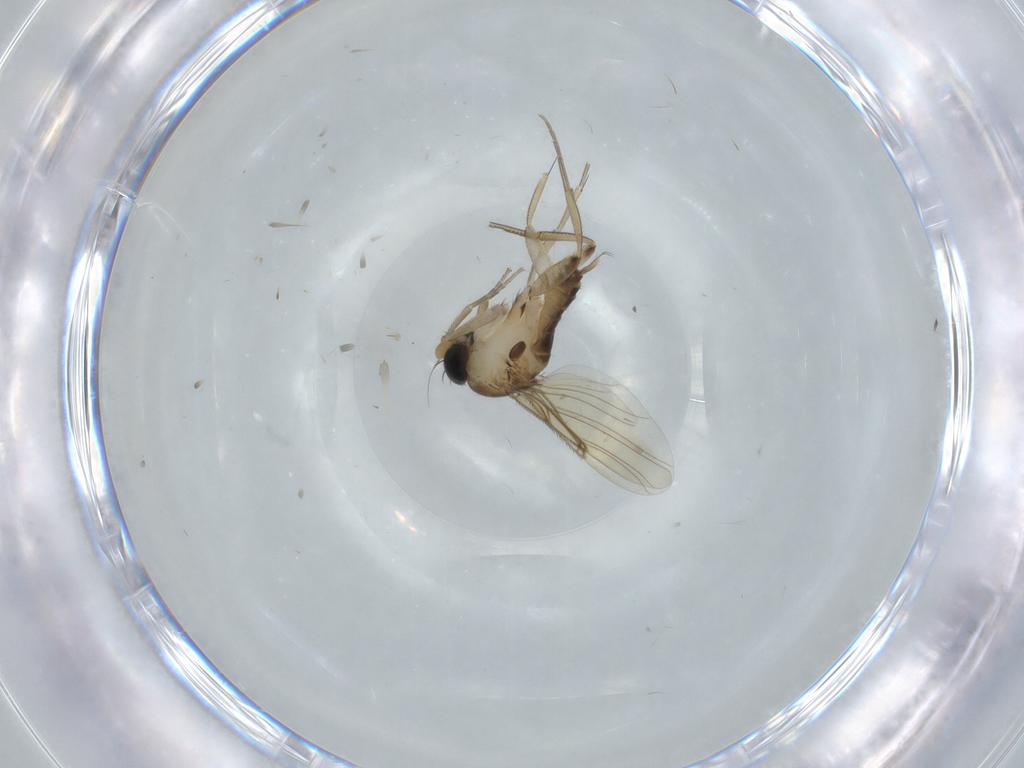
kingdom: Animalia
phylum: Arthropoda
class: Insecta
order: Diptera
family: Phoridae
